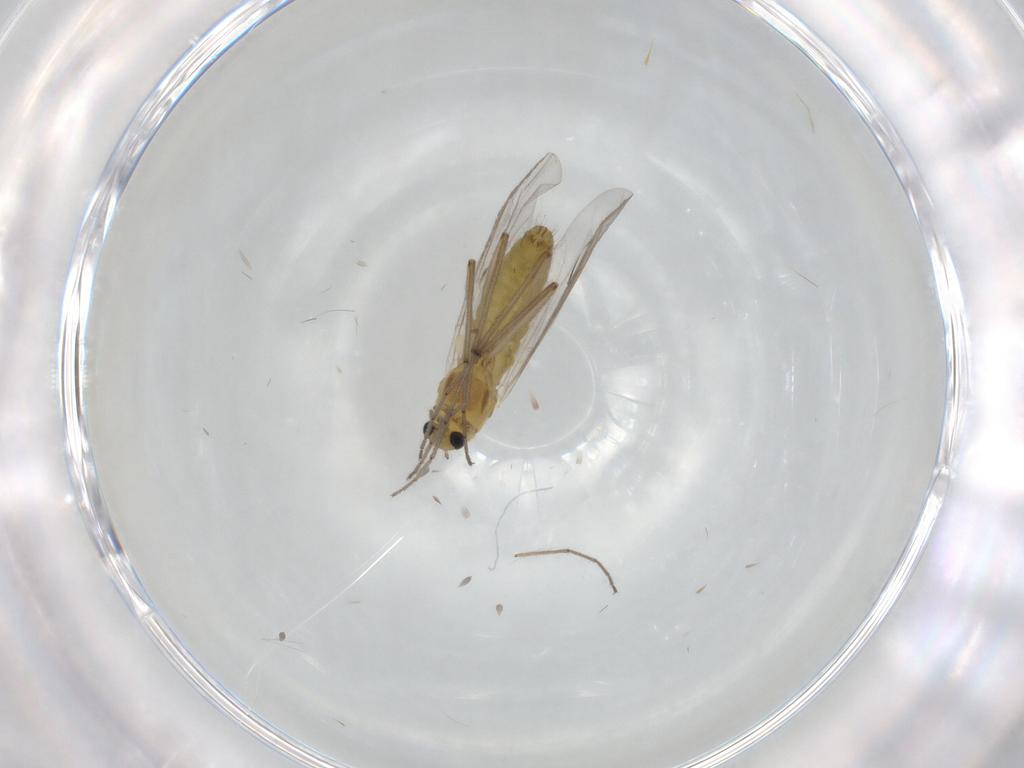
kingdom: Animalia
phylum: Arthropoda
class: Insecta
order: Diptera
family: Chironomidae
